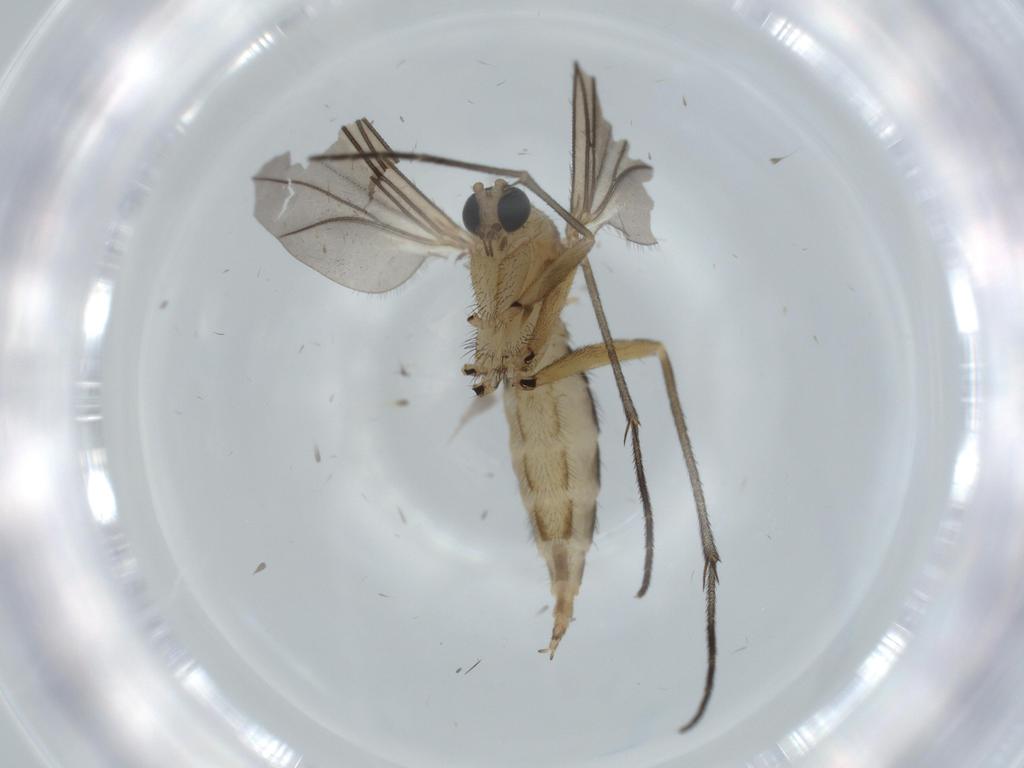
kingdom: Animalia
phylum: Arthropoda
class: Insecta
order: Diptera
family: Sciaridae
